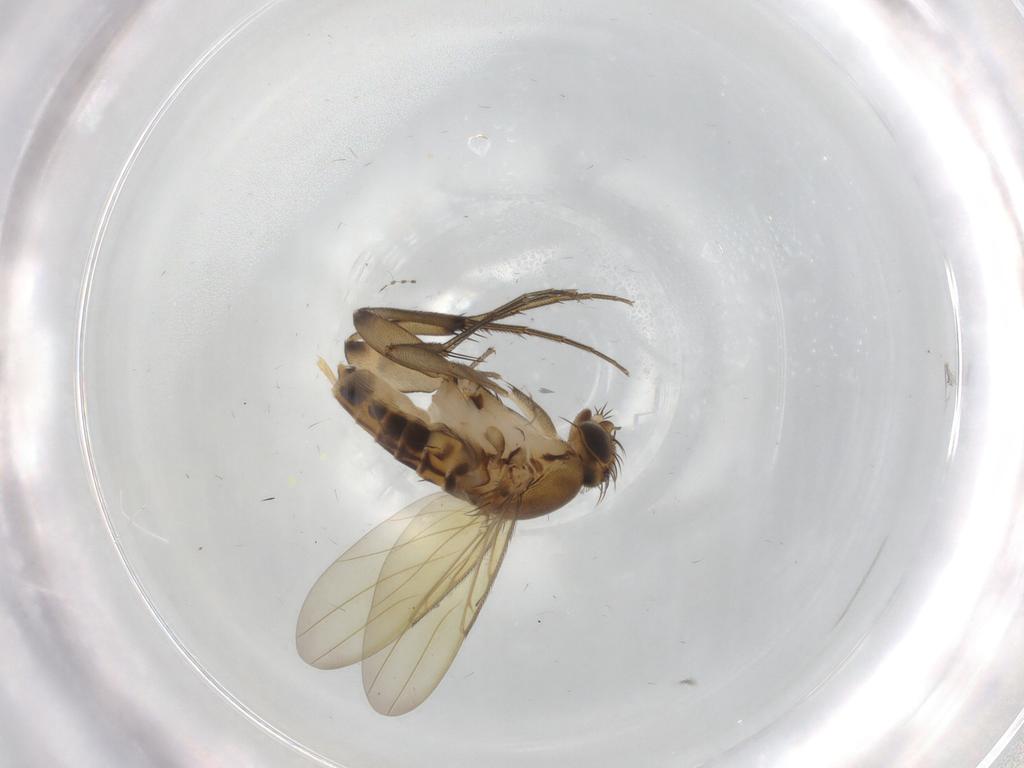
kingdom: Animalia
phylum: Arthropoda
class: Insecta
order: Diptera
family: Phoridae
